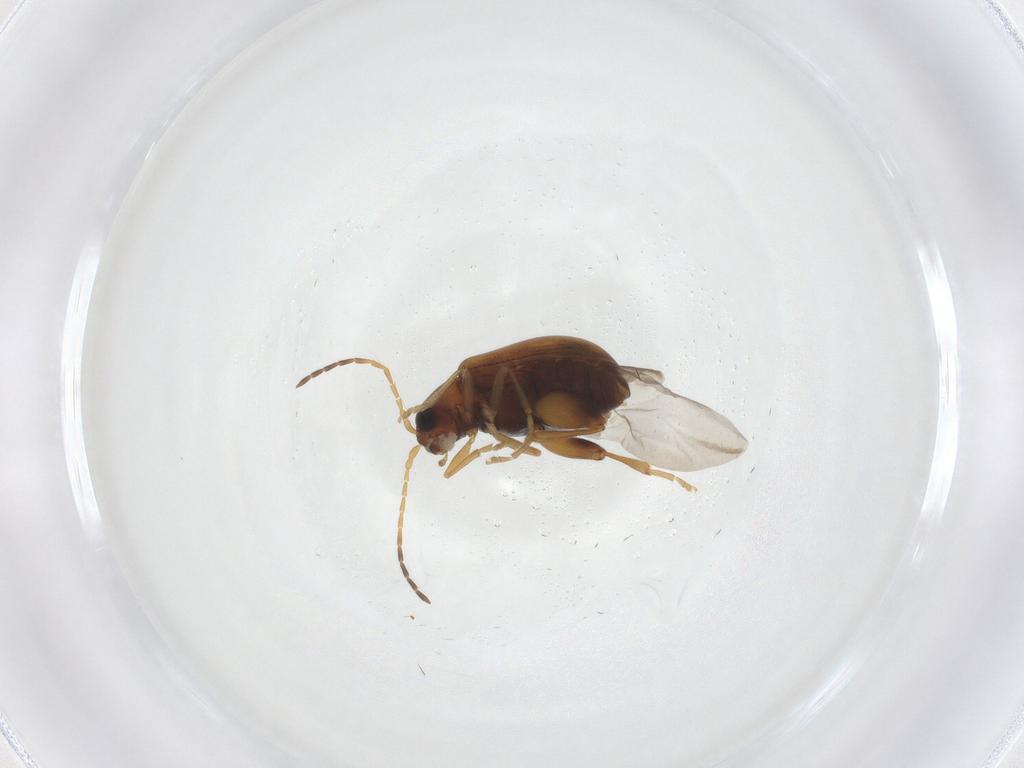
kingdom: Animalia
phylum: Arthropoda
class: Insecta
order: Coleoptera
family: Chrysomelidae
